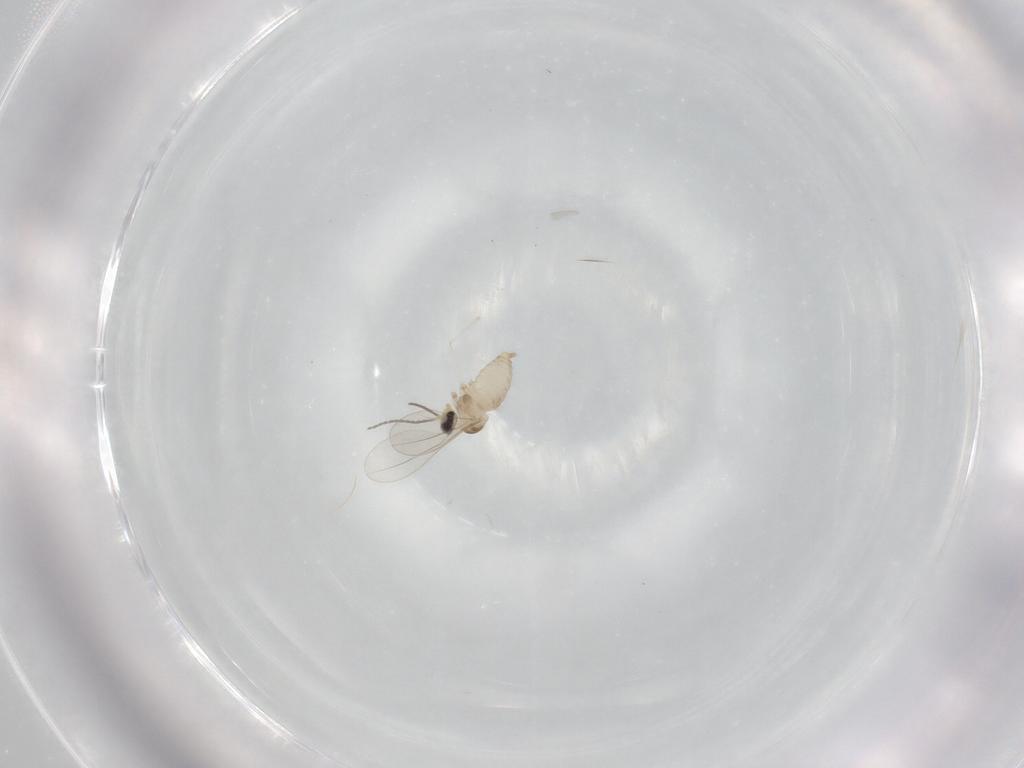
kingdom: Animalia
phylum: Arthropoda
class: Insecta
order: Diptera
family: Cecidomyiidae
